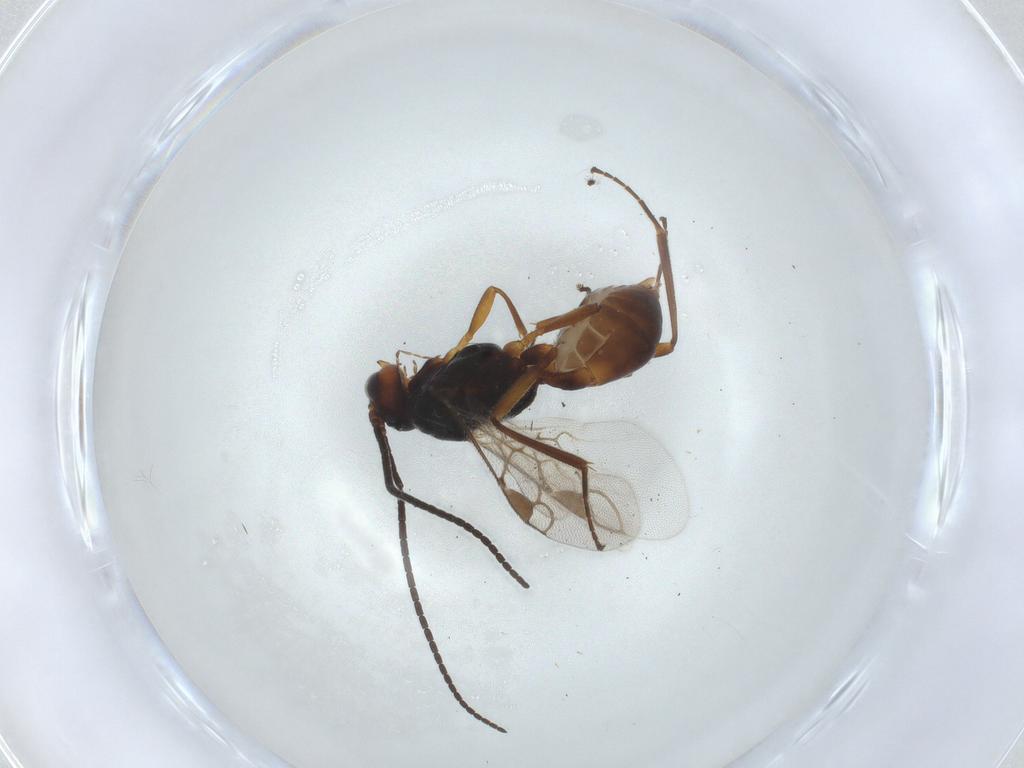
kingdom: Animalia
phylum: Arthropoda
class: Insecta
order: Hymenoptera
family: Braconidae
